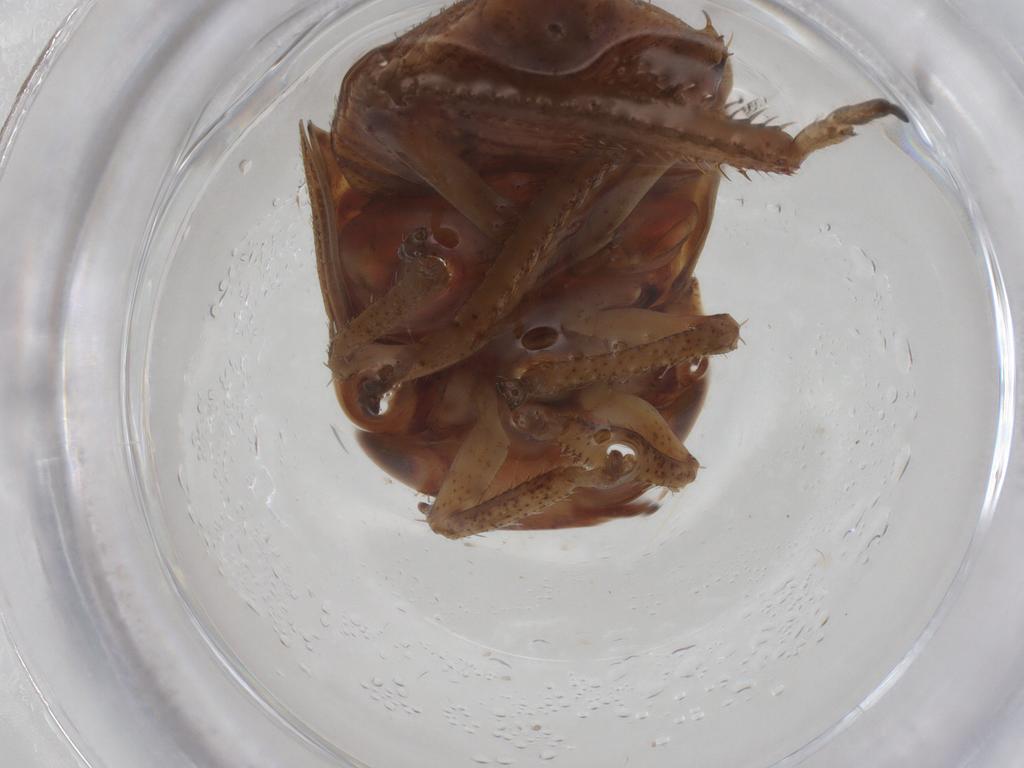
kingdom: Animalia
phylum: Arthropoda
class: Insecta
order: Hemiptera
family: Cicadellidae
